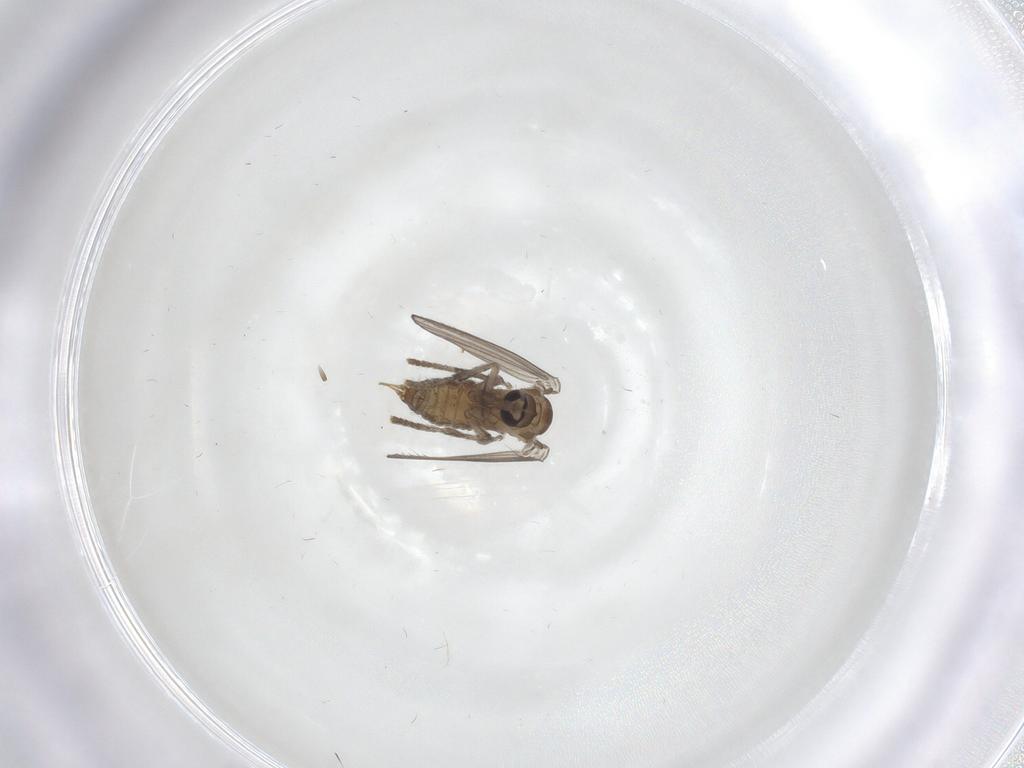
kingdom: Animalia
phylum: Arthropoda
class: Insecta
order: Diptera
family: Psychodidae
